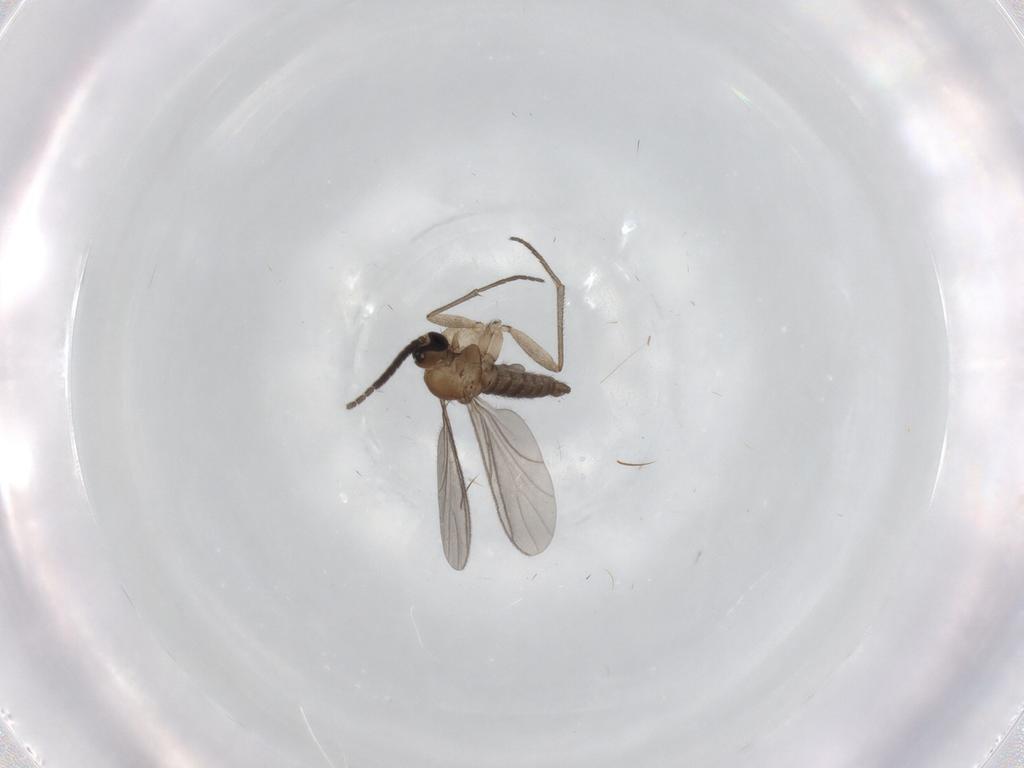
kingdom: Animalia
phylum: Arthropoda
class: Insecta
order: Diptera
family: Sciaridae
